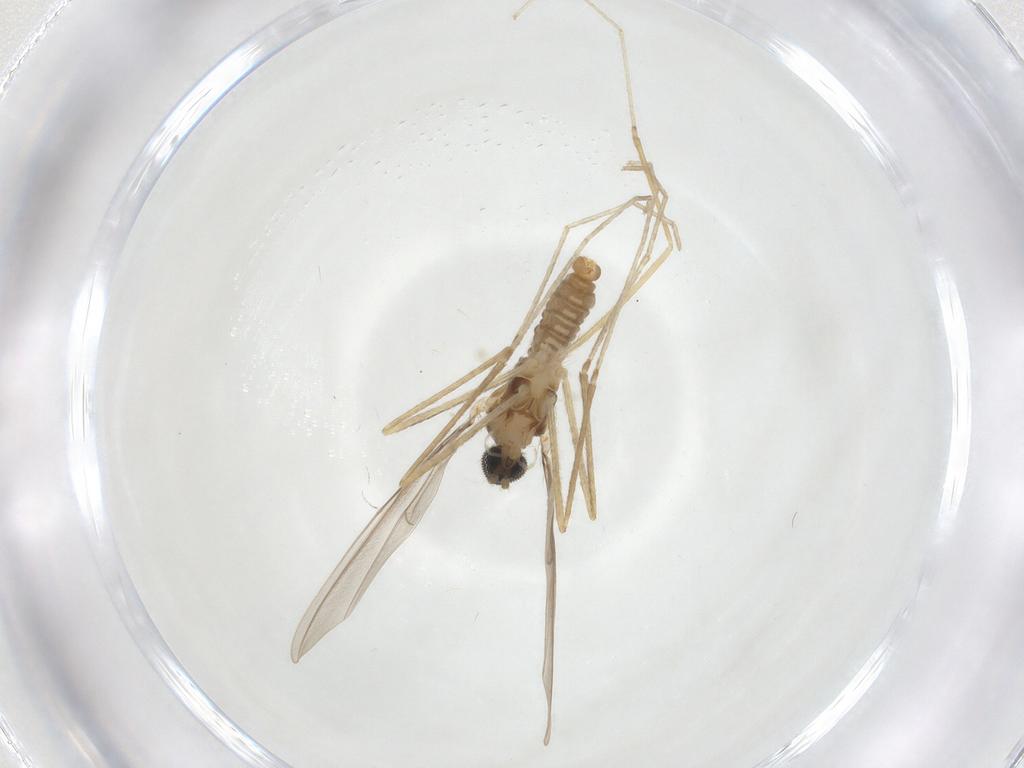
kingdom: Animalia
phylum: Arthropoda
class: Insecta
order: Diptera
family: Cecidomyiidae
